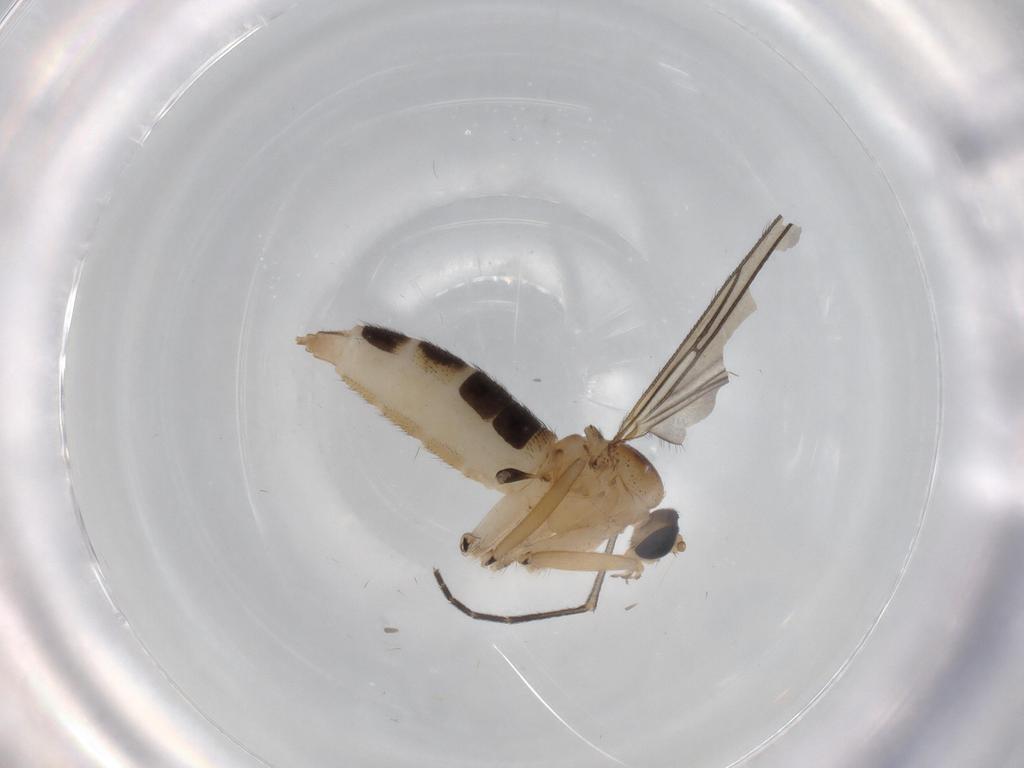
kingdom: Animalia
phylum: Arthropoda
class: Insecta
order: Diptera
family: Sciaridae
